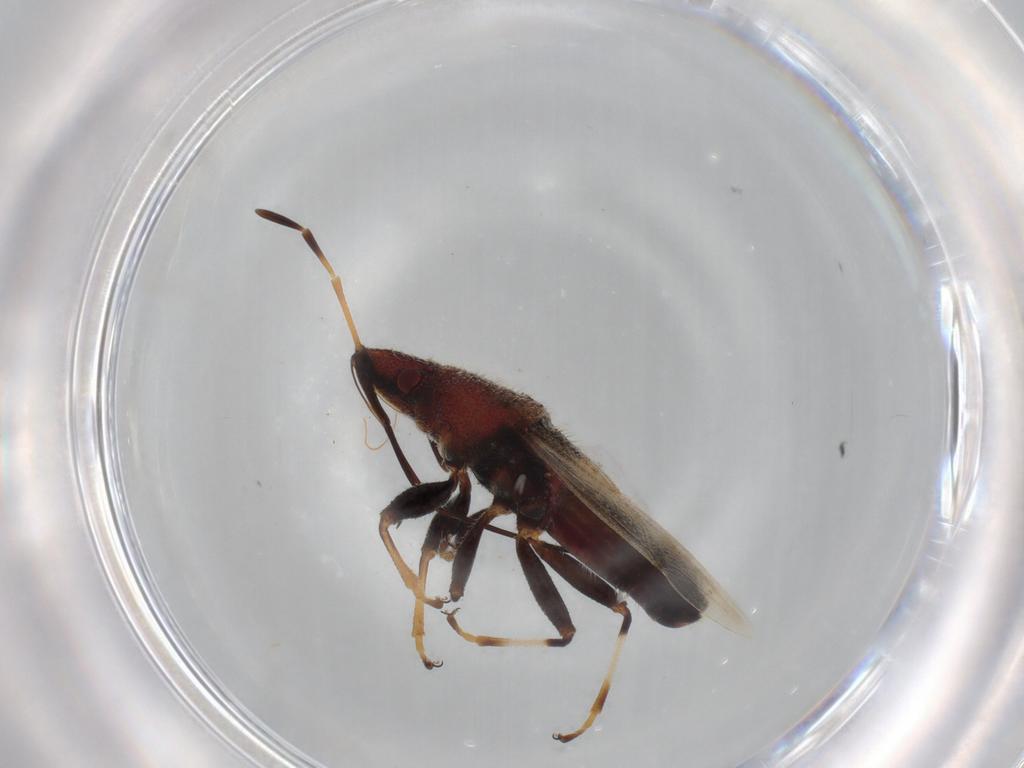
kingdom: Animalia
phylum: Arthropoda
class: Insecta
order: Hemiptera
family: Oxycarenidae
